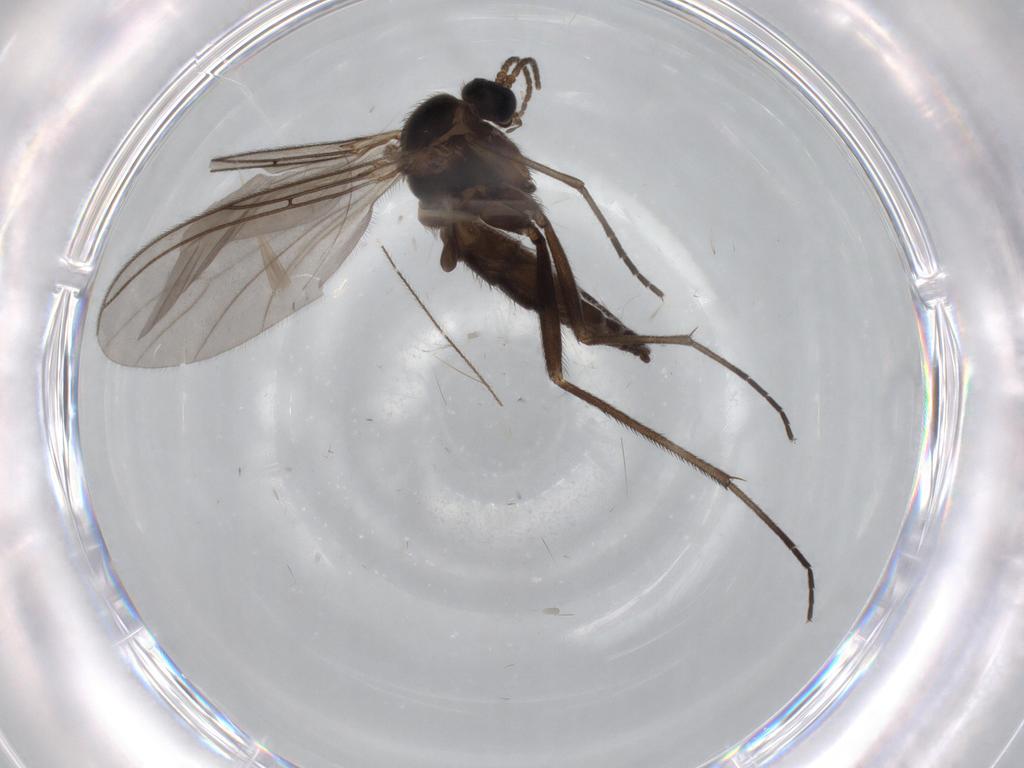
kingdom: Animalia
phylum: Arthropoda
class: Insecta
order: Diptera
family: Sciaridae
